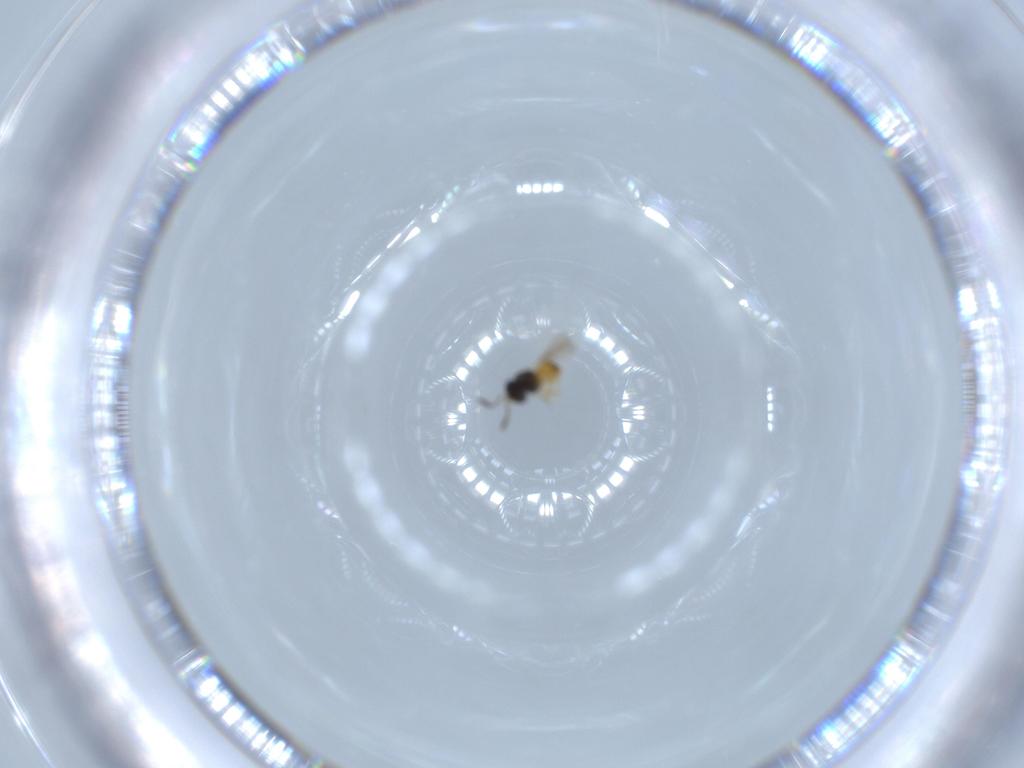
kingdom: Animalia
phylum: Arthropoda
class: Insecta
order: Hymenoptera
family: Scelionidae
